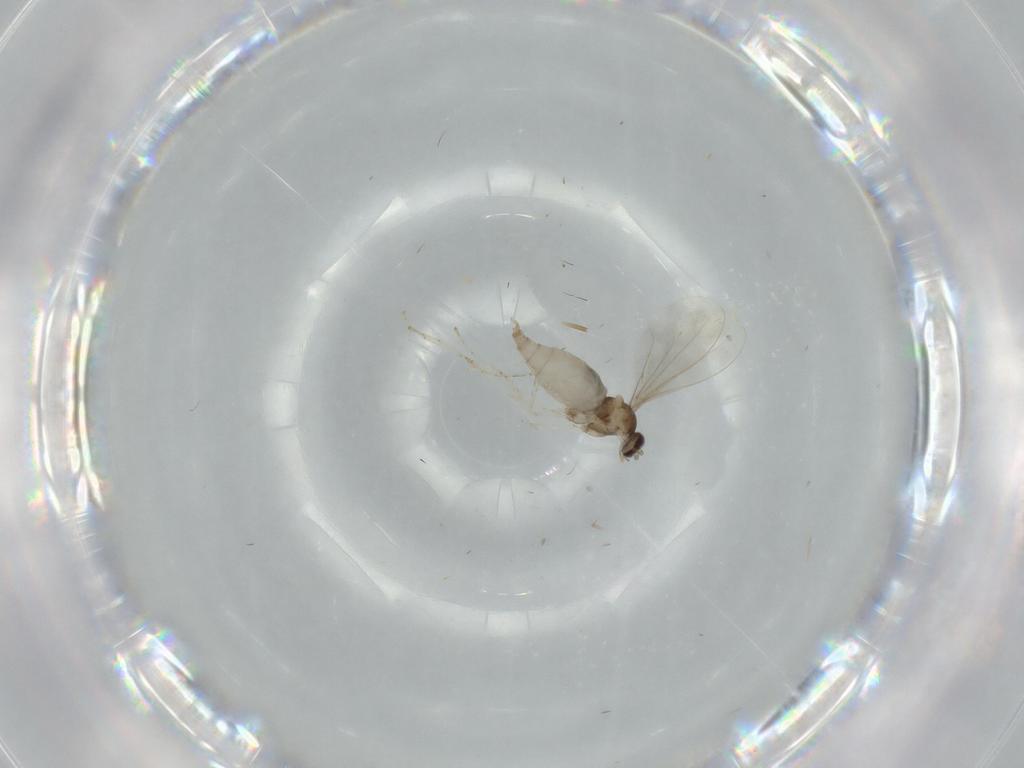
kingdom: Animalia
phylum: Arthropoda
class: Insecta
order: Diptera
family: Cecidomyiidae
